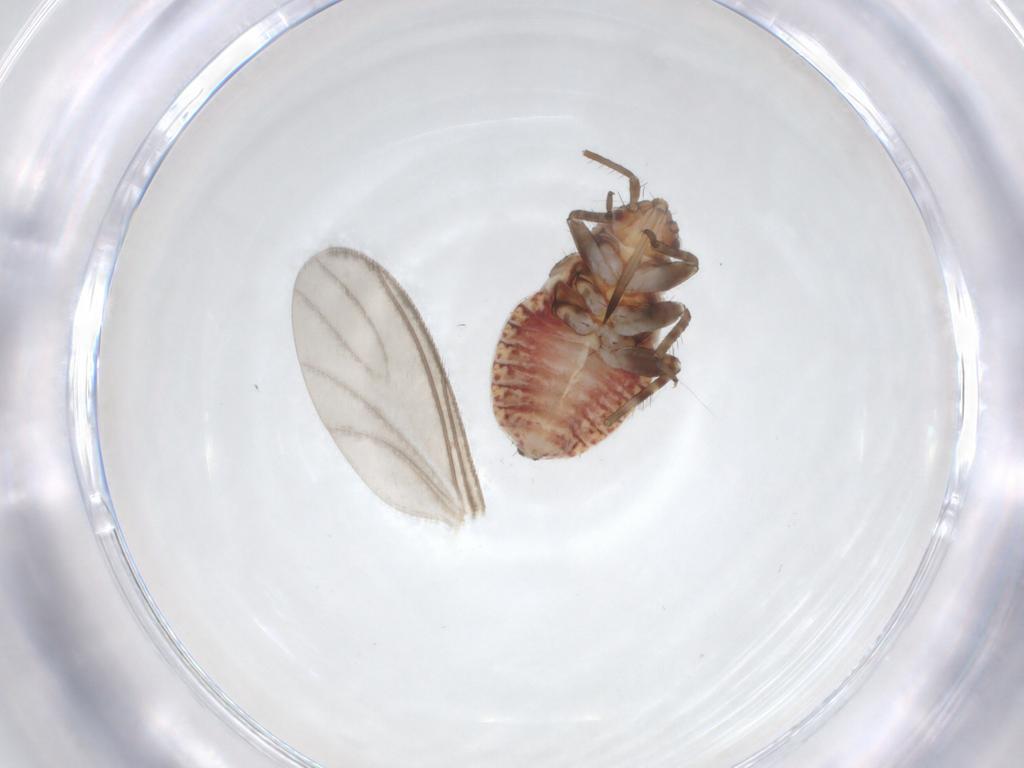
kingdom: Animalia
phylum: Arthropoda
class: Insecta
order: Hemiptera
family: Miridae
